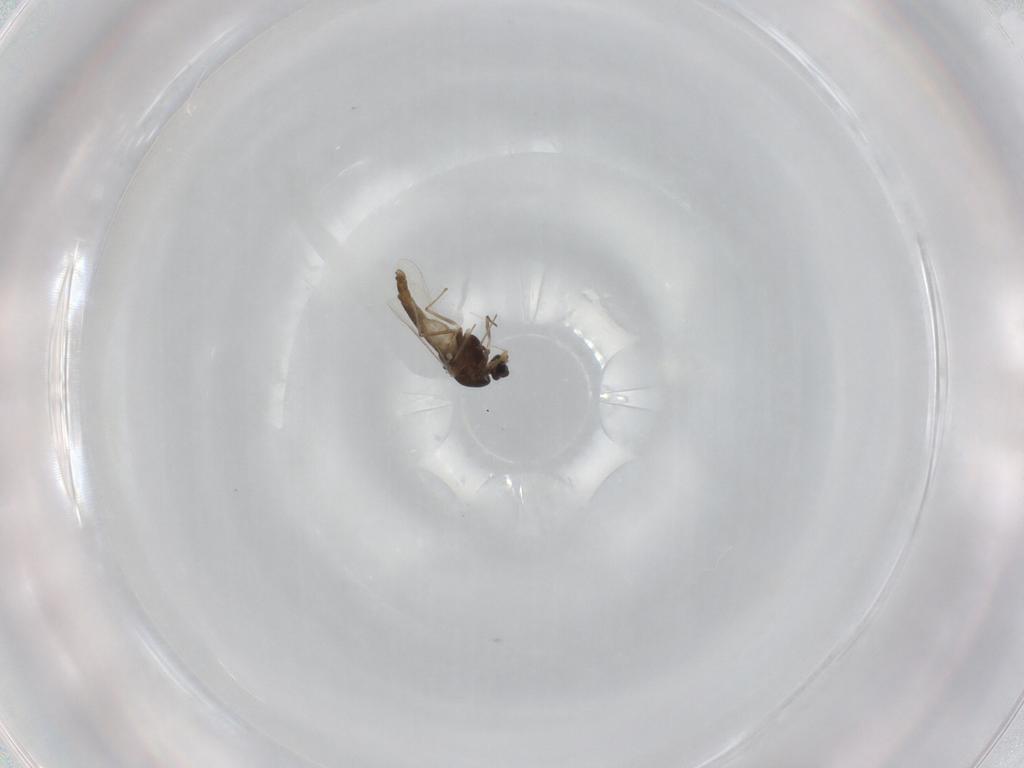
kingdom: Animalia
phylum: Arthropoda
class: Insecta
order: Diptera
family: Chironomidae
